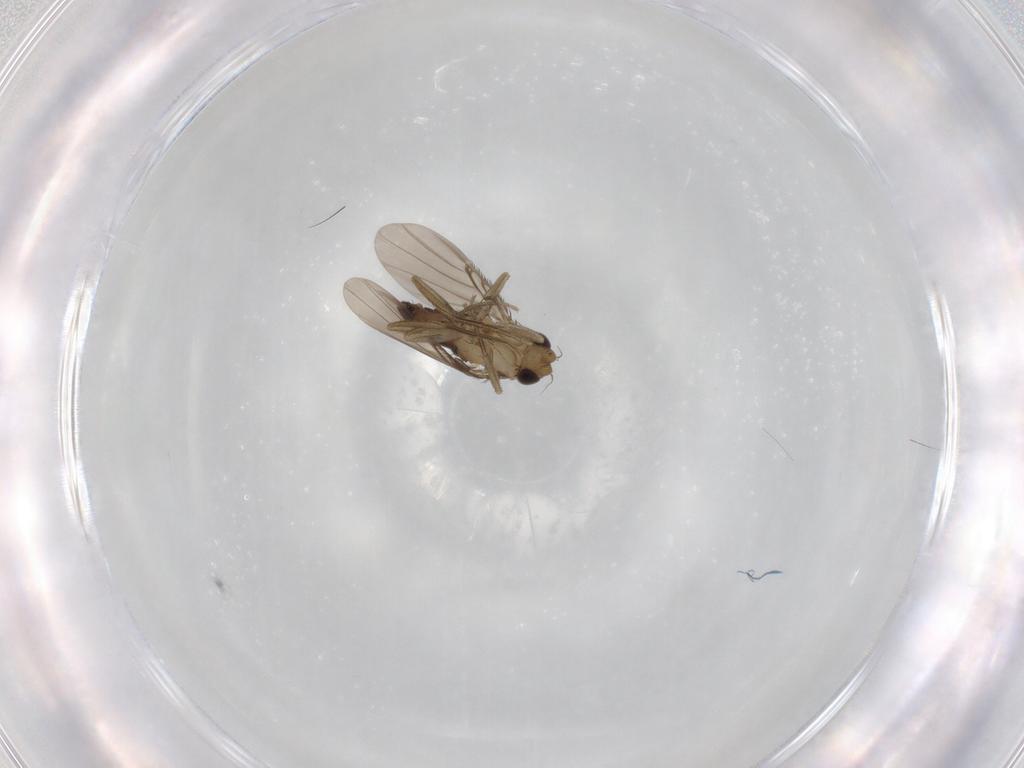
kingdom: Animalia
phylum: Arthropoda
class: Insecta
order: Diptera
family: Phoridae
